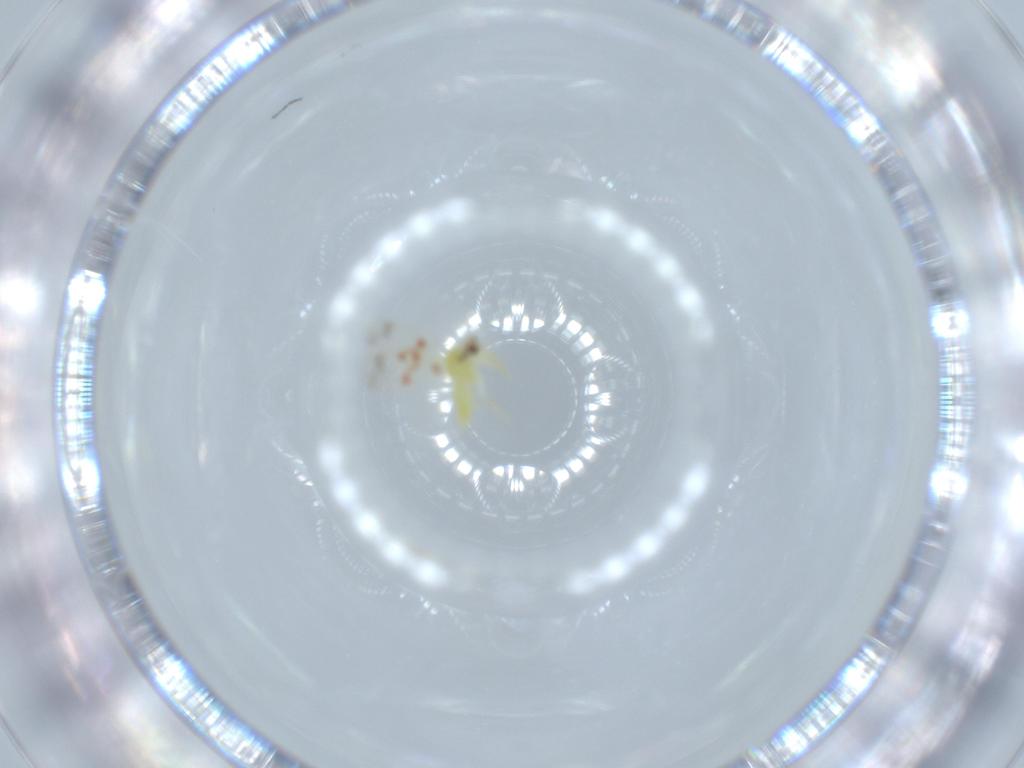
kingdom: Animalia
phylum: Arthropoda
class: Insecta
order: Hemiptera
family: Aleyrodidae
